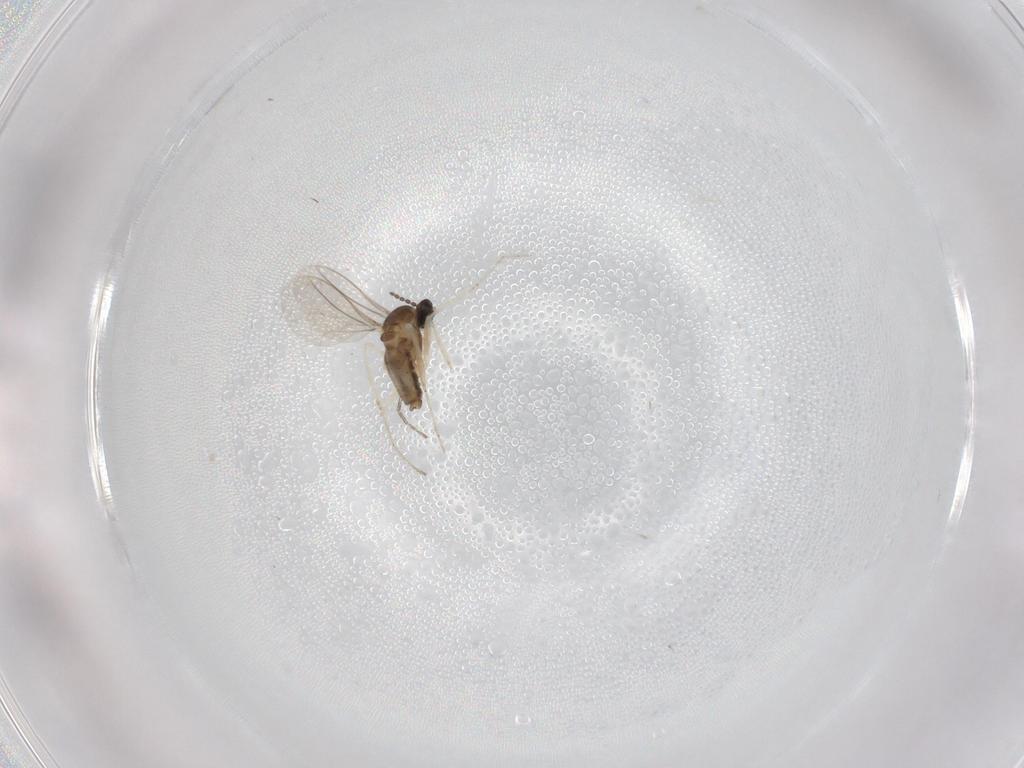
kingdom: Animalia
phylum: Arthropoda
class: Insecta
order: Diptera
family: Cecidomyiidae
